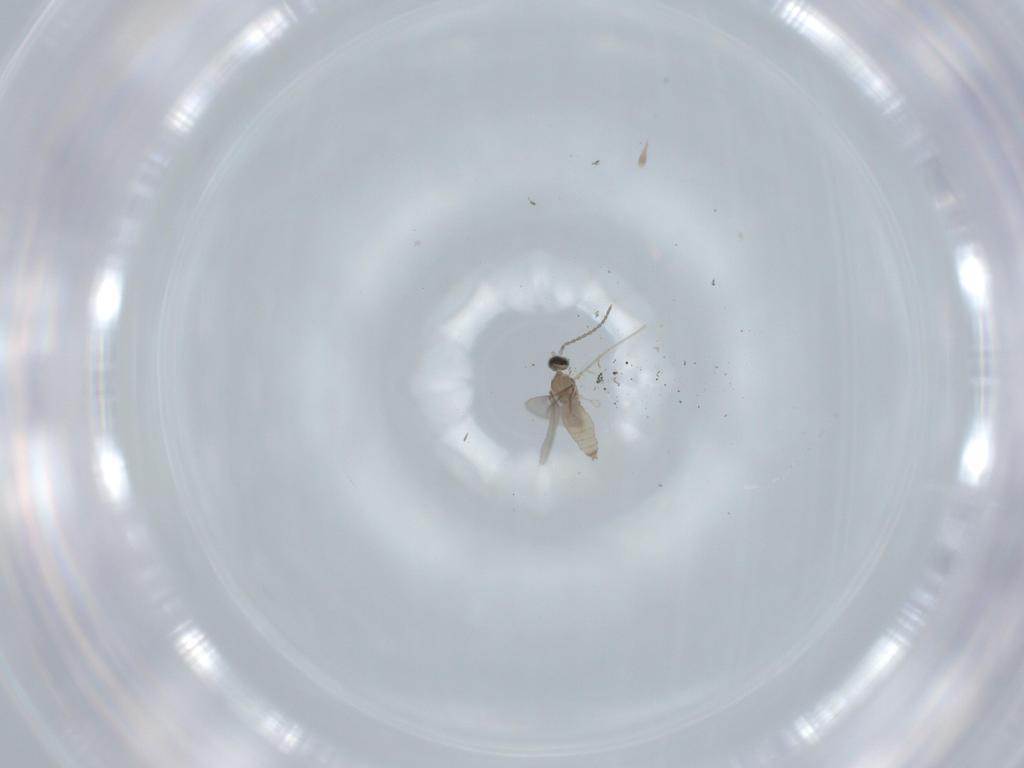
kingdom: Animalia
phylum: Arthropoda
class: Insecta
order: Diptera
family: Cecidomyiidae
